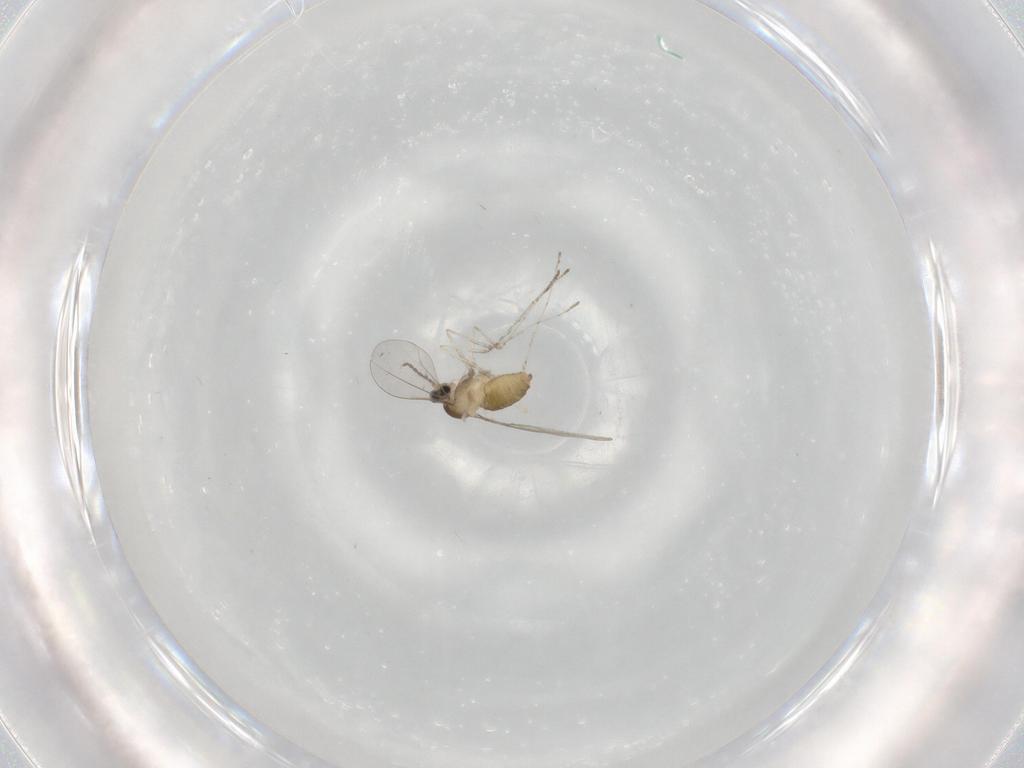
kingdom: Animalia
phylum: Arthropoda
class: Insecta
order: Diptera
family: Cecidomyiidae
